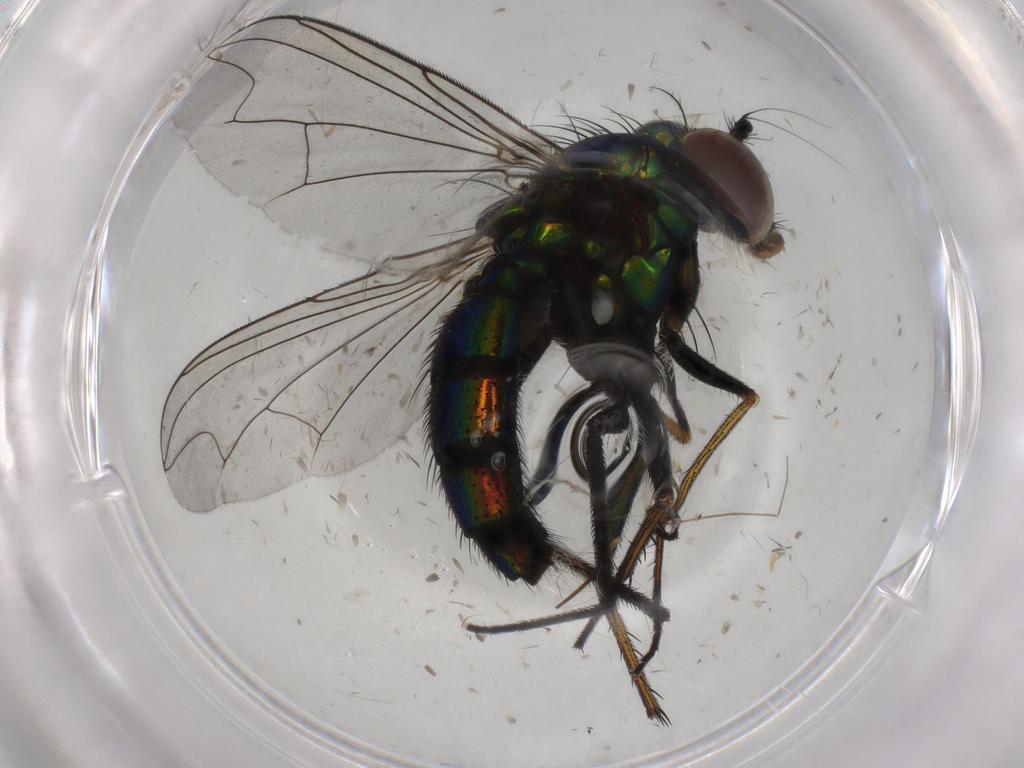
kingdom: Animalia
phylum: Arthropoda
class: Insecta
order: Diptera
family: Dolichopodidae
